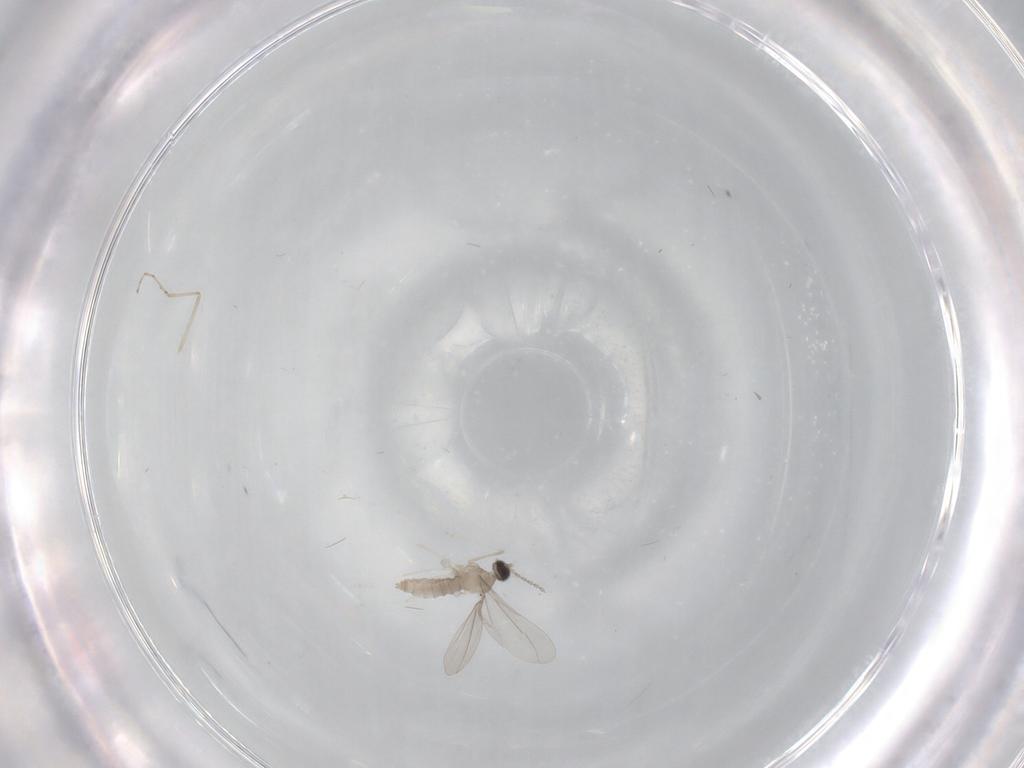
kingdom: Animalia
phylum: Arthropoda
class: Insecta
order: Diptera
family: Cecidomyiidae
